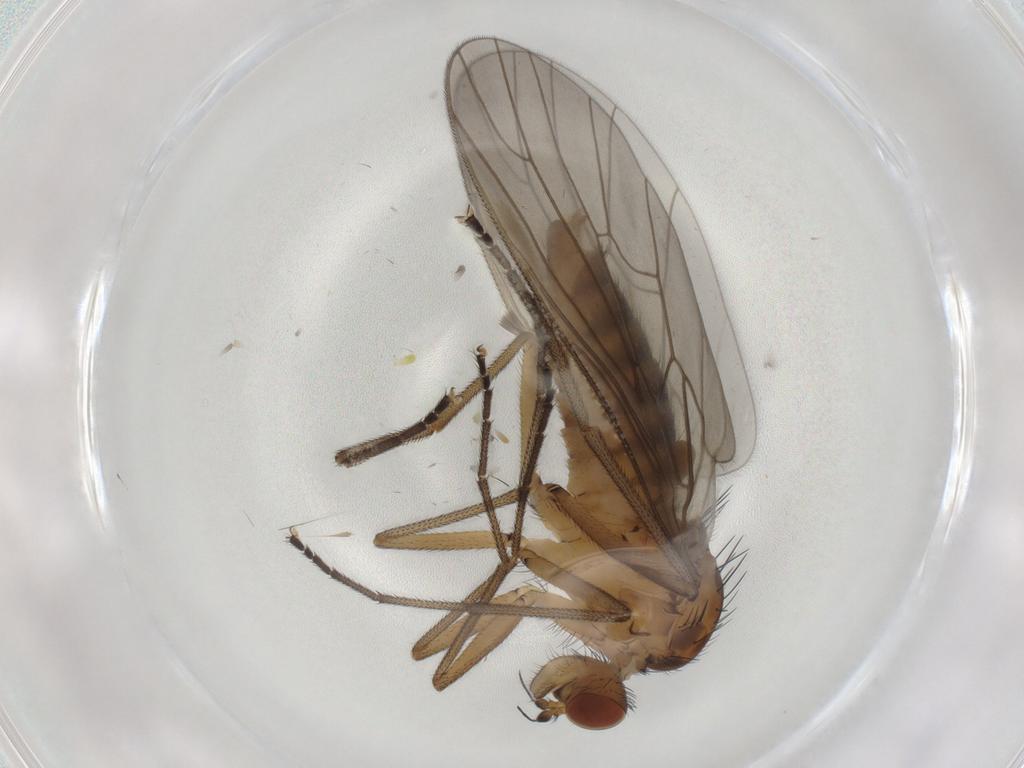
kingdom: Animalia
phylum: Arthropoda
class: Insecta
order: Diptera
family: Brachystomatidae
